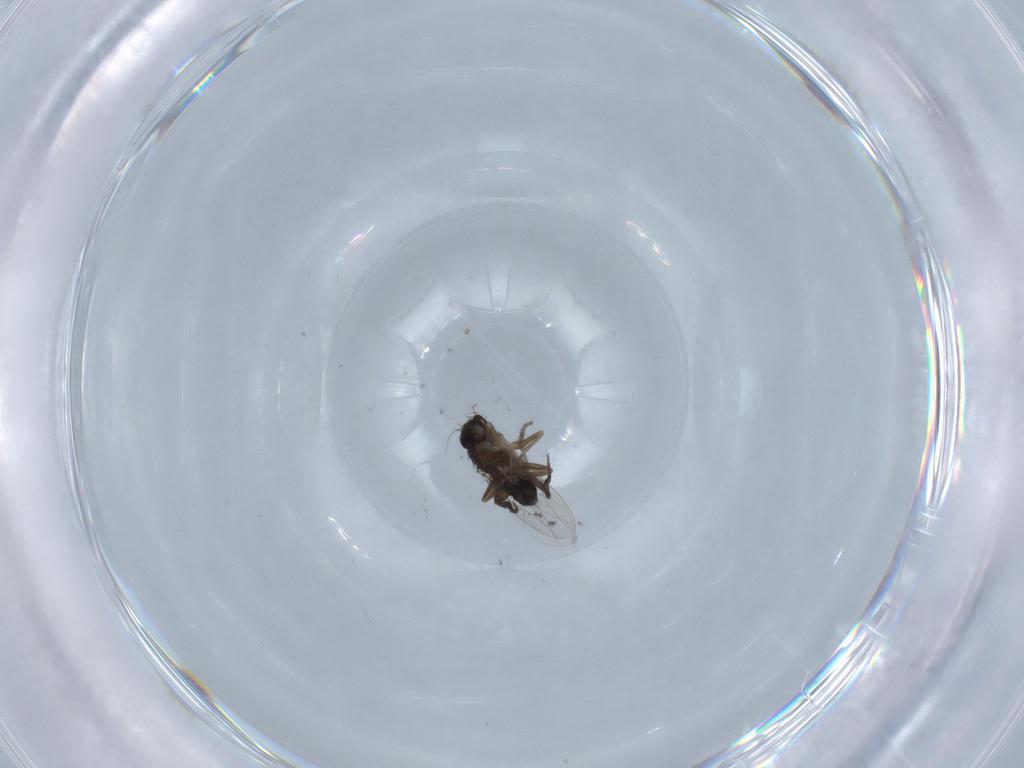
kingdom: Animalia
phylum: Arthropoda
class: Insecta
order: Diptera
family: Phoridae
